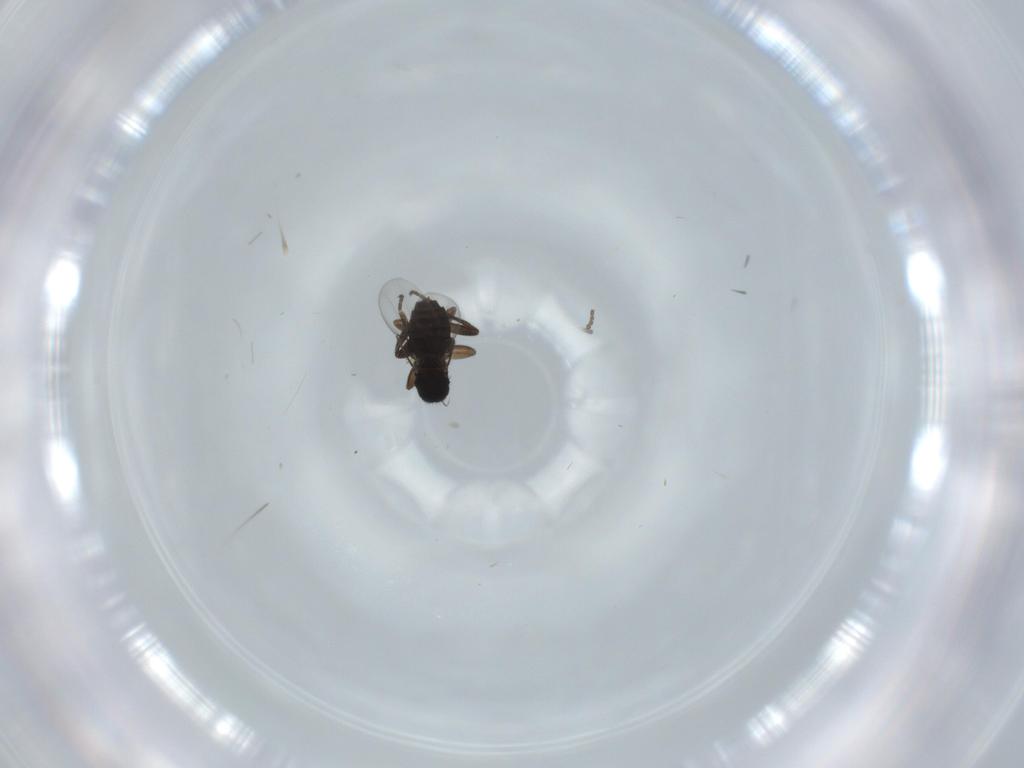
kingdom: Animalia
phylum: Arthropoda
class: Insecta
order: Diptera
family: Phoridae
